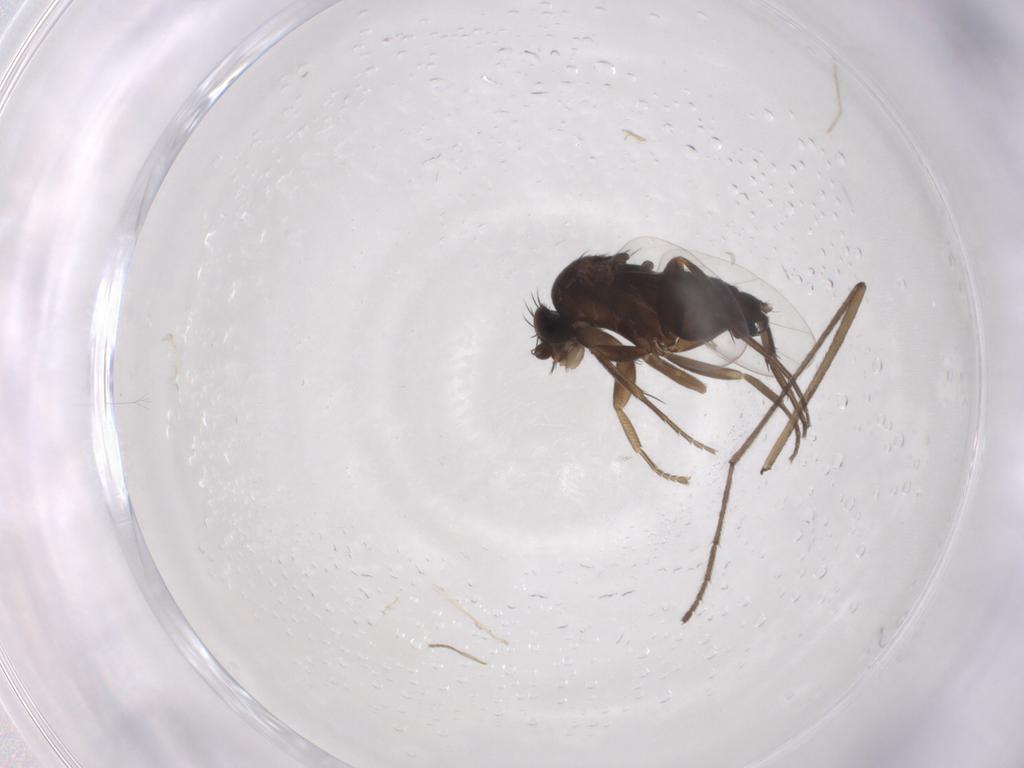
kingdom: Animalia
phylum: Arthropoda
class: Insecta
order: Diptera
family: Phoridae
